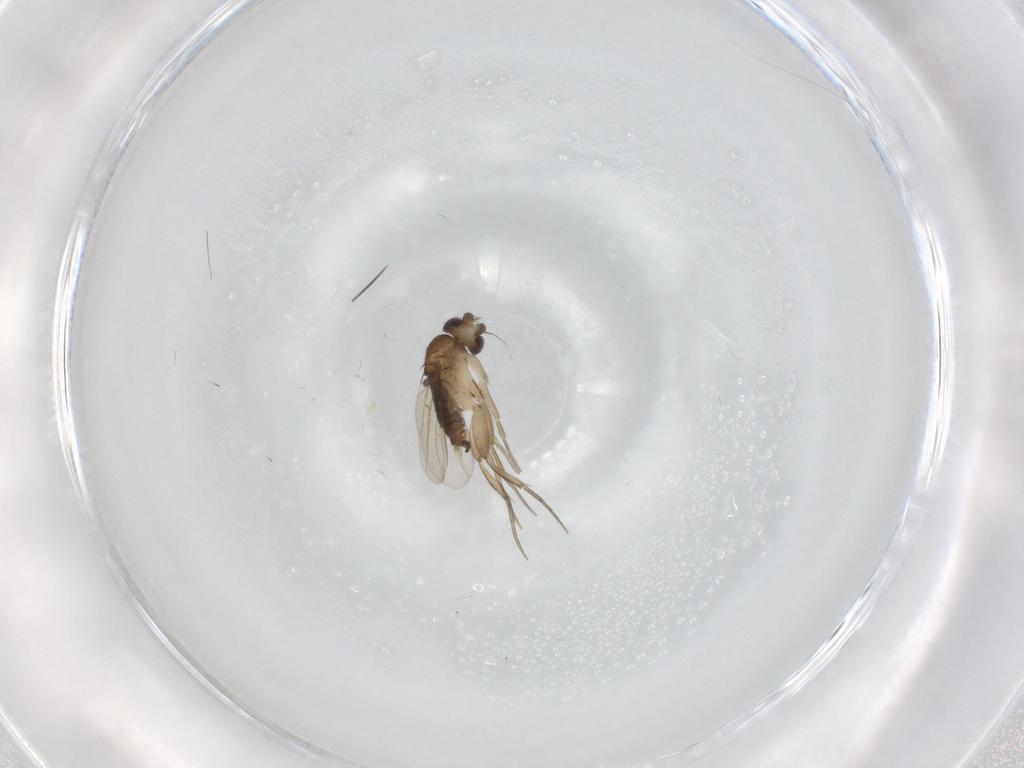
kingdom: Animalia
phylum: Arthropoda
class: Insecta
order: Diptera
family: Phoridae
